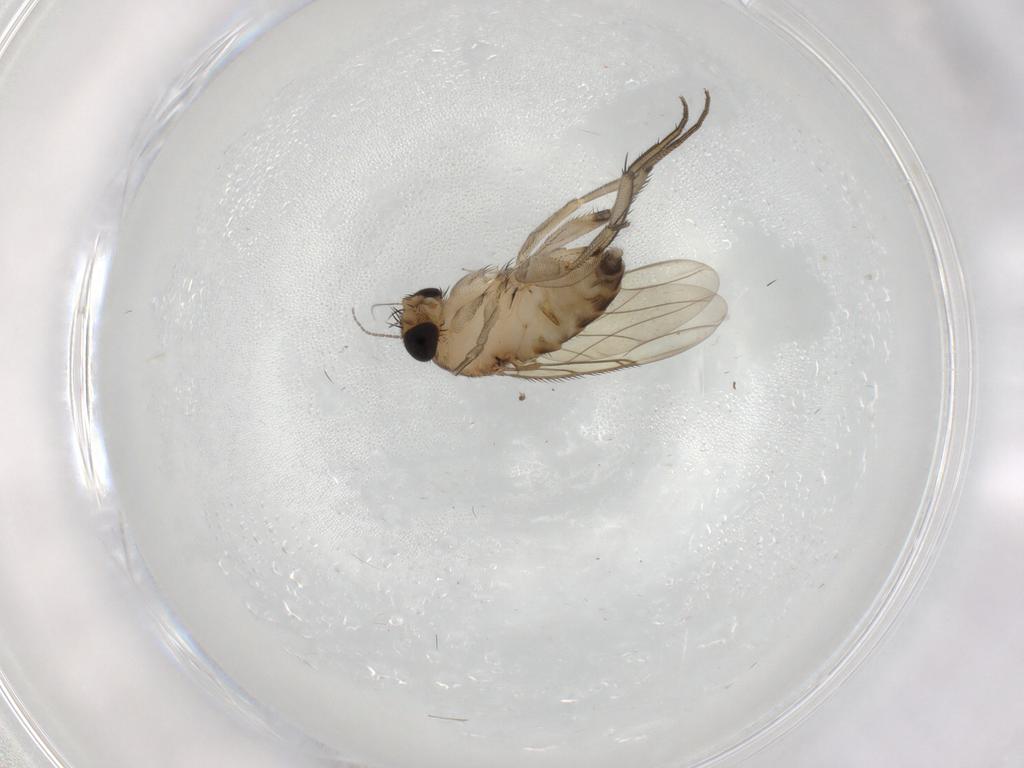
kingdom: Animalia
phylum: Arthropoda
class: Insecta
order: Diptera
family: Phoridae
